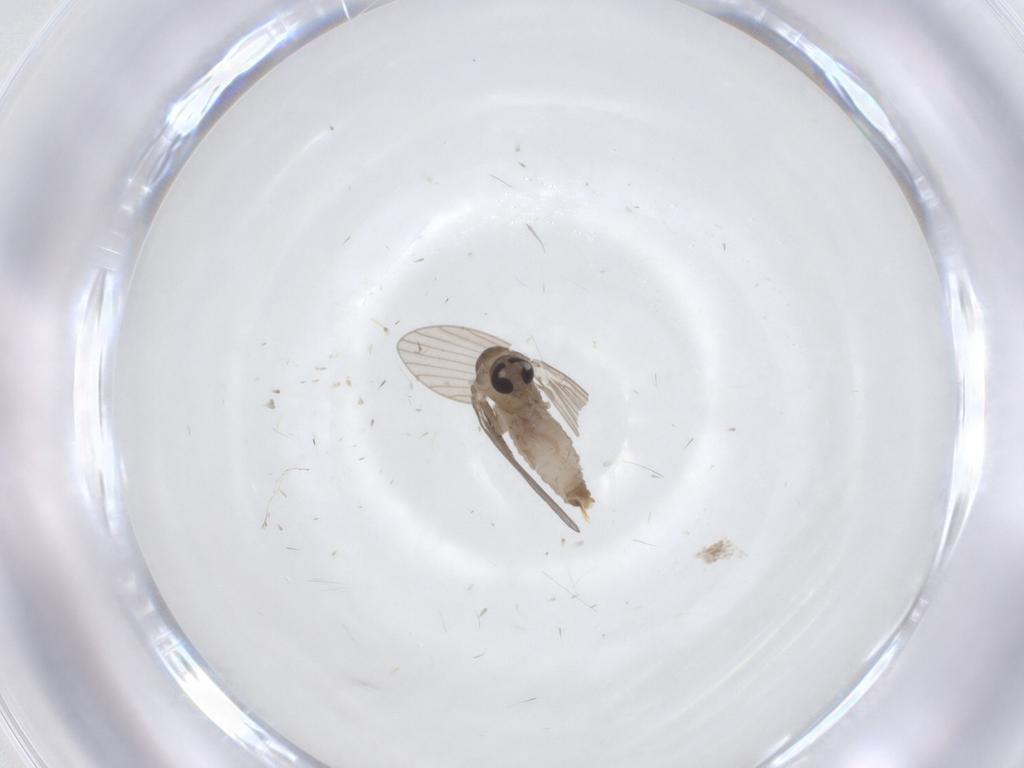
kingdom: Animalia
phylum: Arthropoda
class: Insecta
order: Diptera
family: Psychodidae
